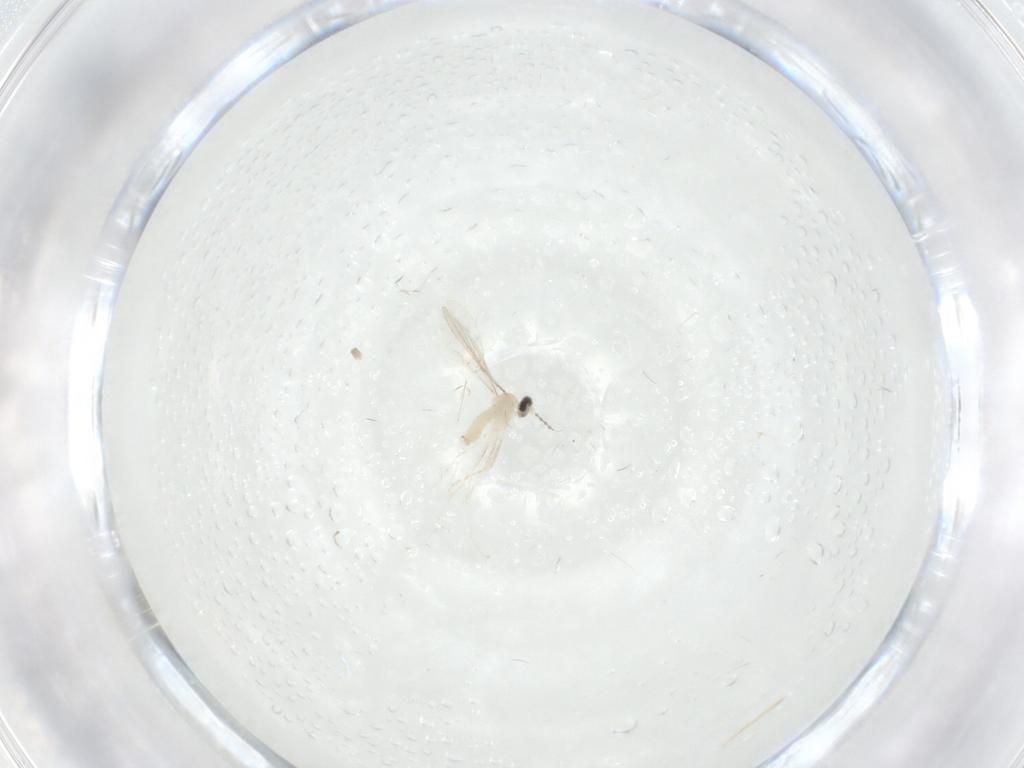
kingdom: Animalia
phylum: Arthropoda
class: Insecta
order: Diptera
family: Cecidomyiidae
